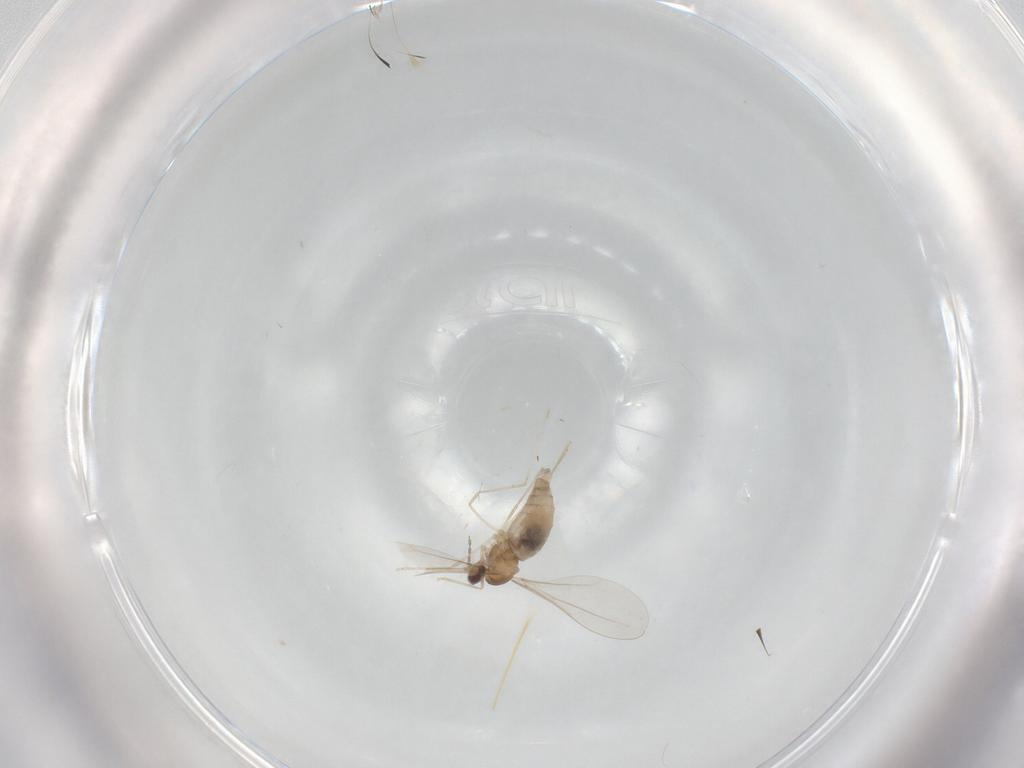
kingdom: Animalia
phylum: Arthropoda
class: Insecta
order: Diptera
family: Cecidomyiidae
